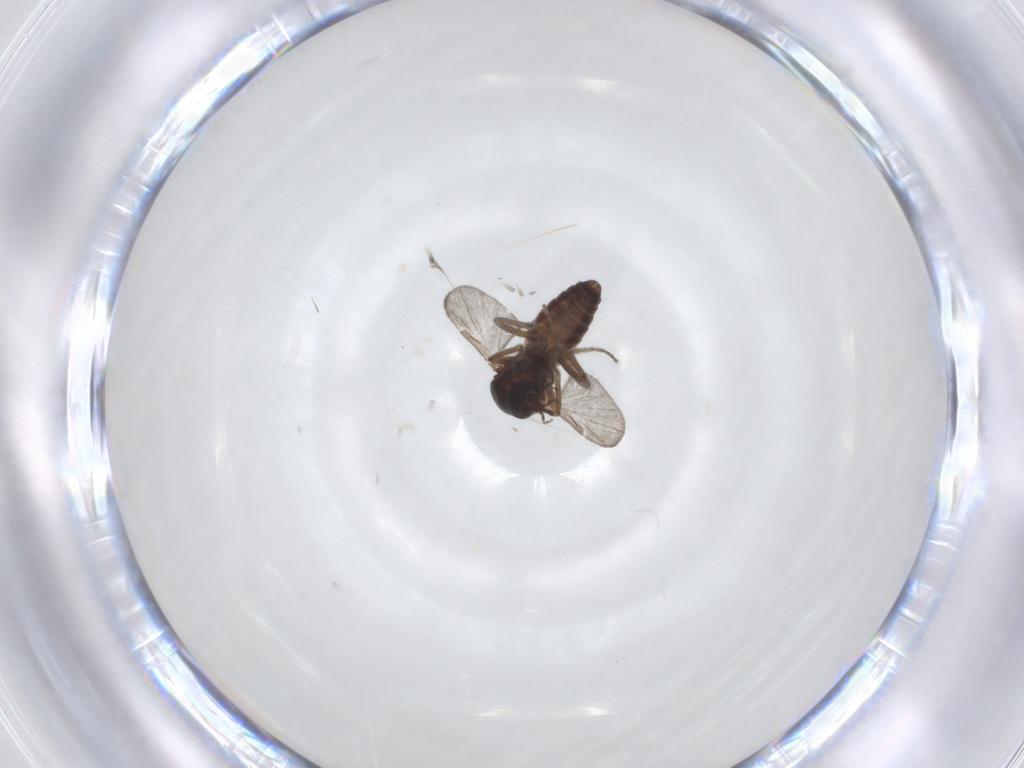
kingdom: Animalia
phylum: Arthropoda
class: Insecta
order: Diptera
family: Ceratopogonidae
